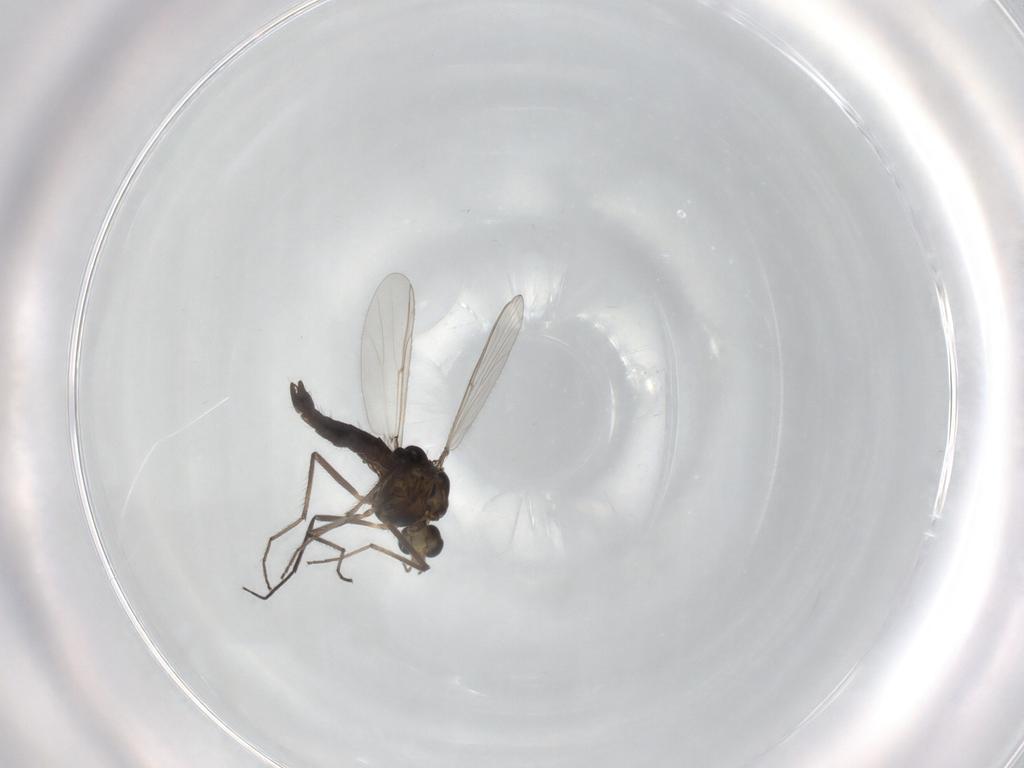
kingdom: Animalia
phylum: Arthropoda
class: Insecta
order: Diptera
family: Chironomidae
